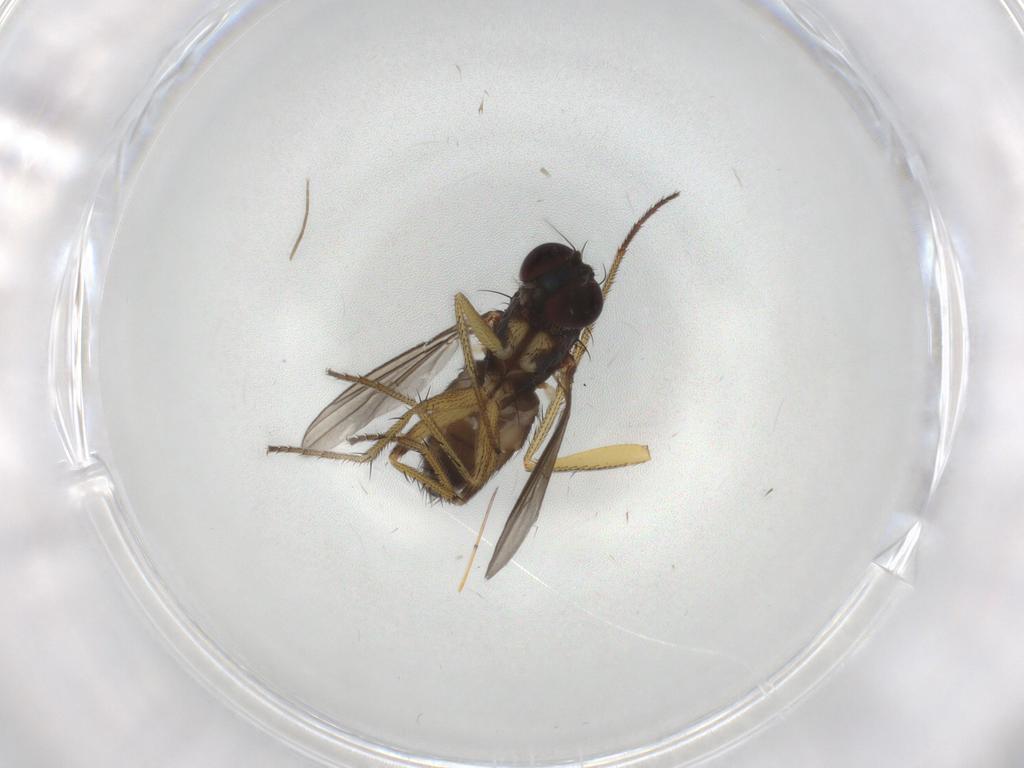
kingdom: Animalia
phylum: Arthropoda
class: Insecta
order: Diptera
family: Dolichopodidae
